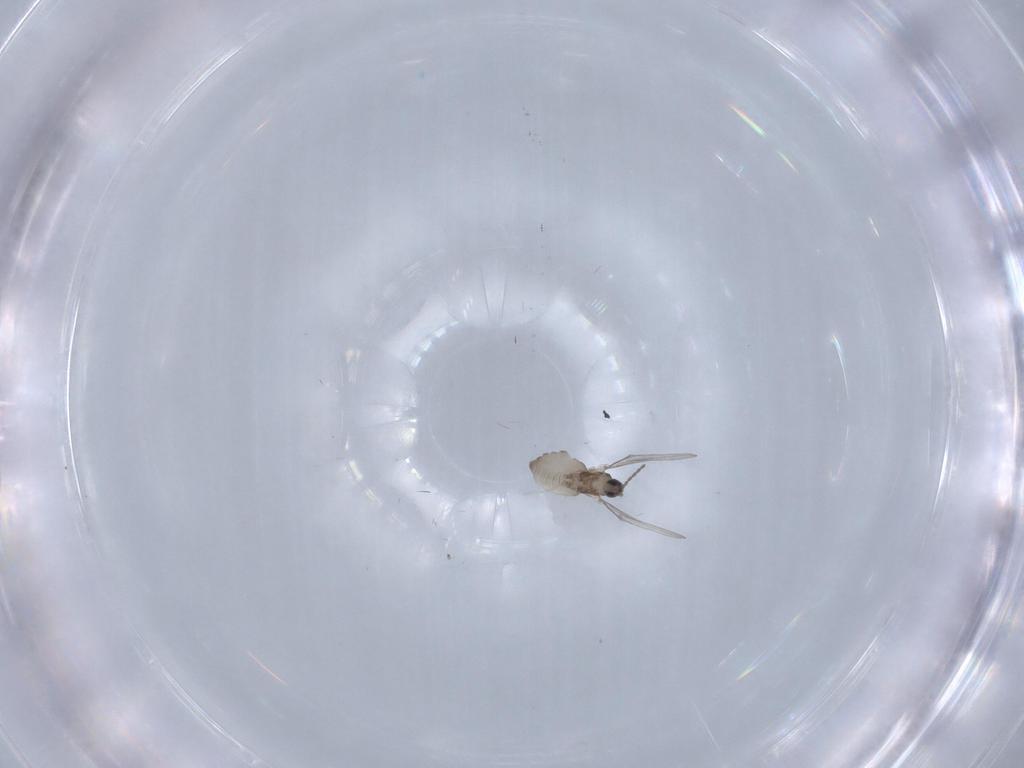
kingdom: Animalia
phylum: Arthropoda
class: Insecta
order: Diptera
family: Cecidomyiidae
